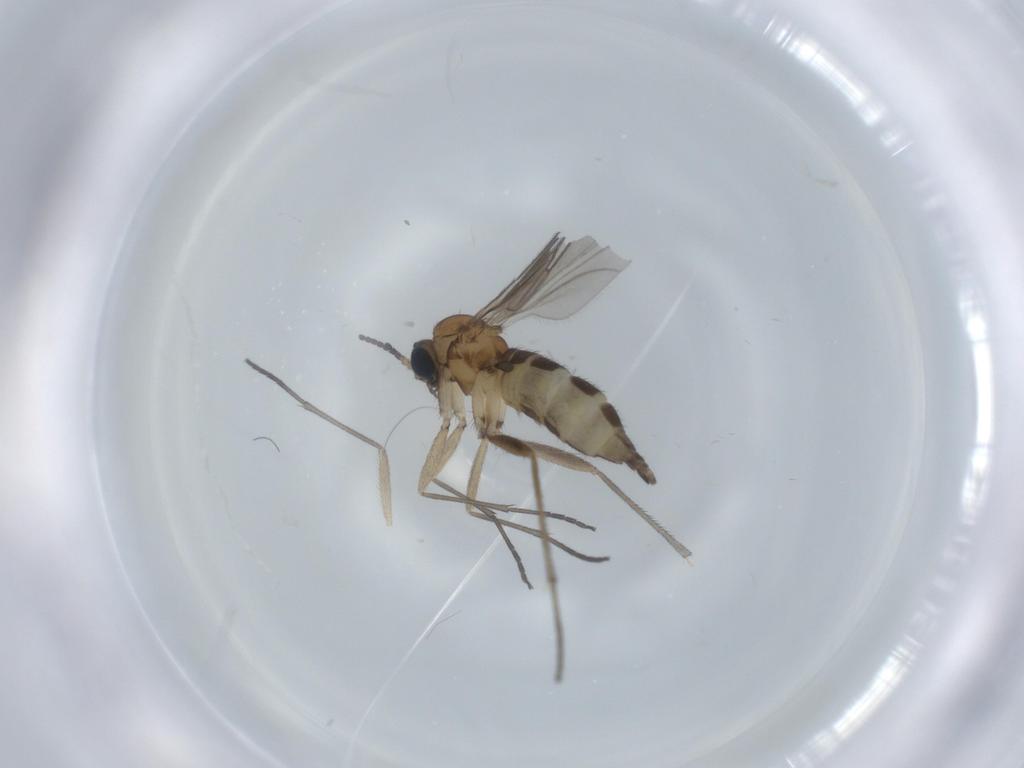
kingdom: Animalia
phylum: Arthropoda
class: Insecta
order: Diptera
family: Sciaridae
